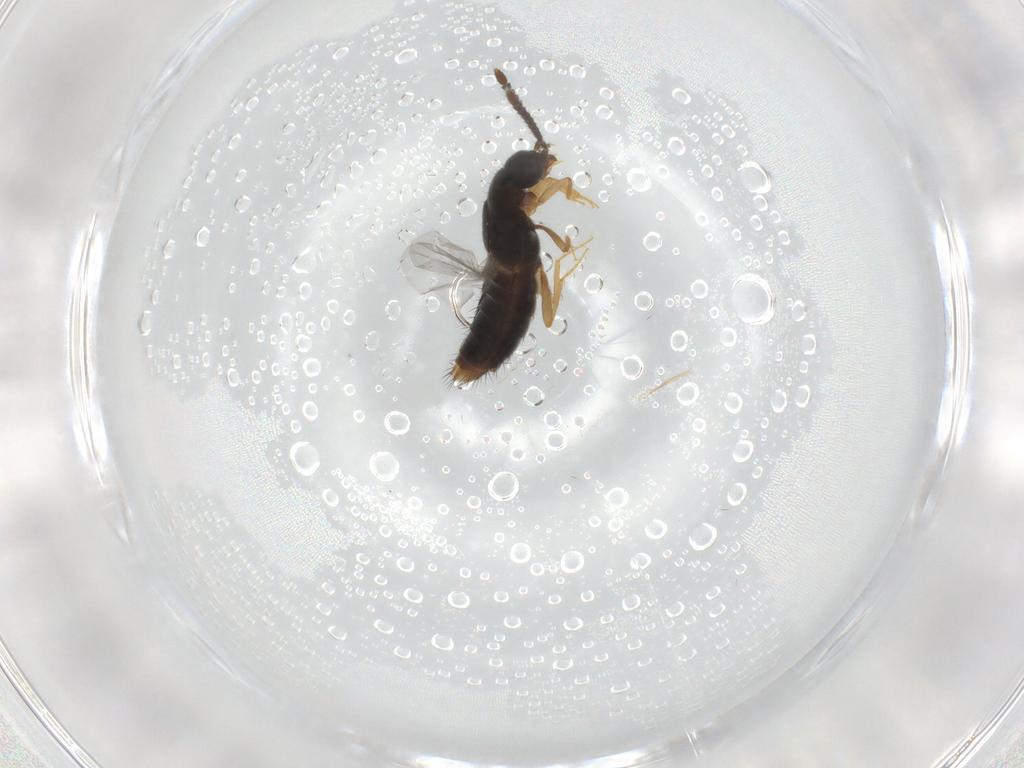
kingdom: Animalia
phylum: Arthropoda
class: Insecta
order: Coleoptera
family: Staphylinidae
